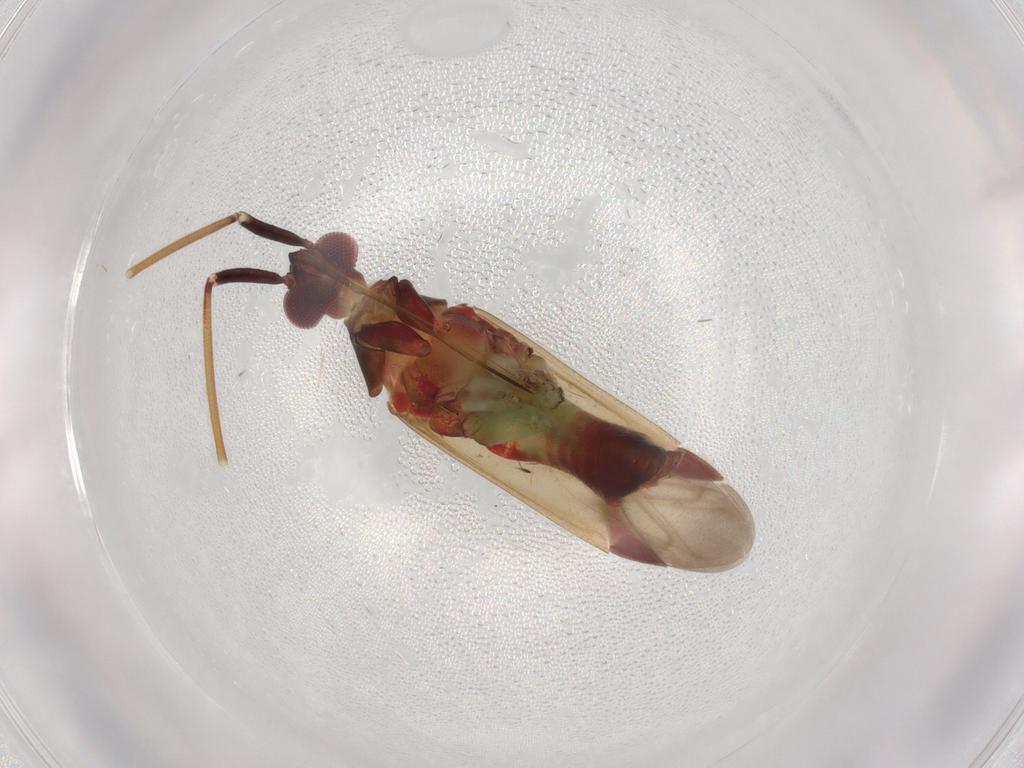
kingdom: Animalia
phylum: Arthropoda
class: Insecta
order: Hemiptera
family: Miridae
